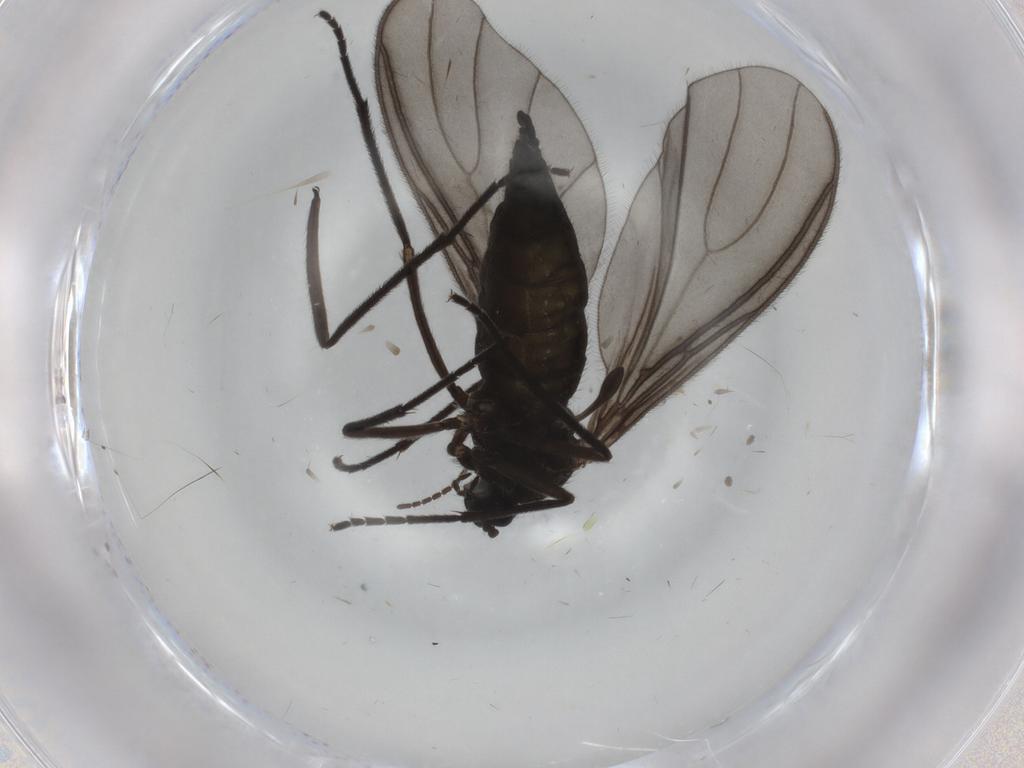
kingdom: Animalia
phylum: Arthropoda
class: Insecta
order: Diptera
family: Sciaridae
